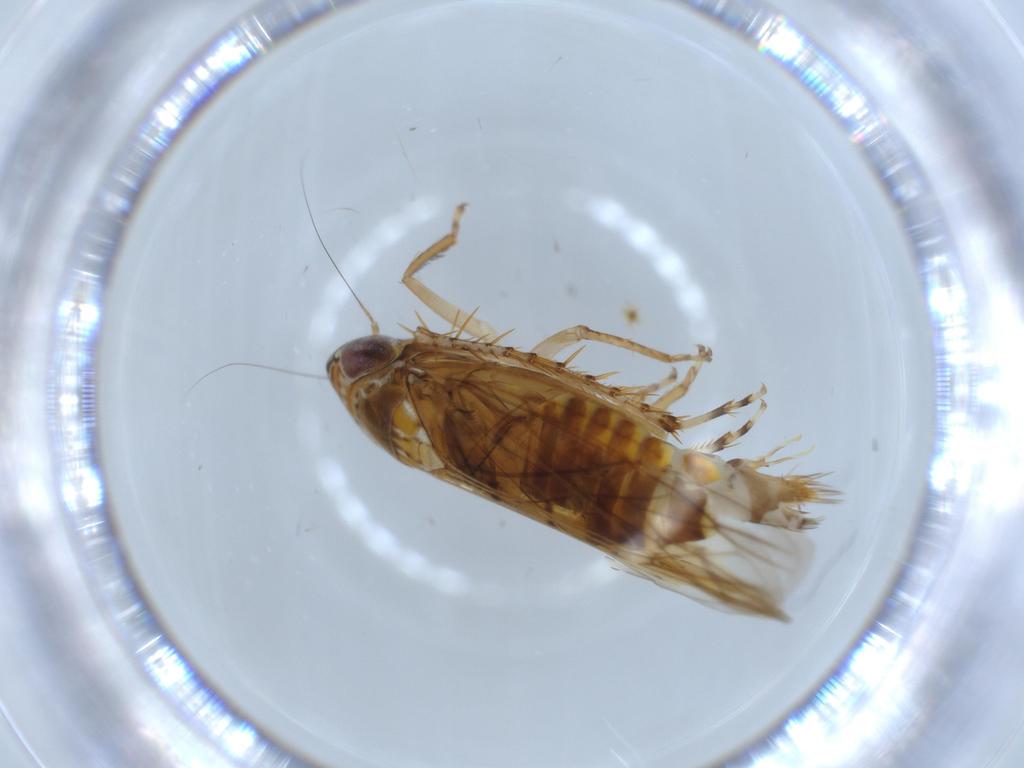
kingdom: Animalia
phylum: Arthropoda
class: Insecta
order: Hemiptera
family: Cicadellidae
